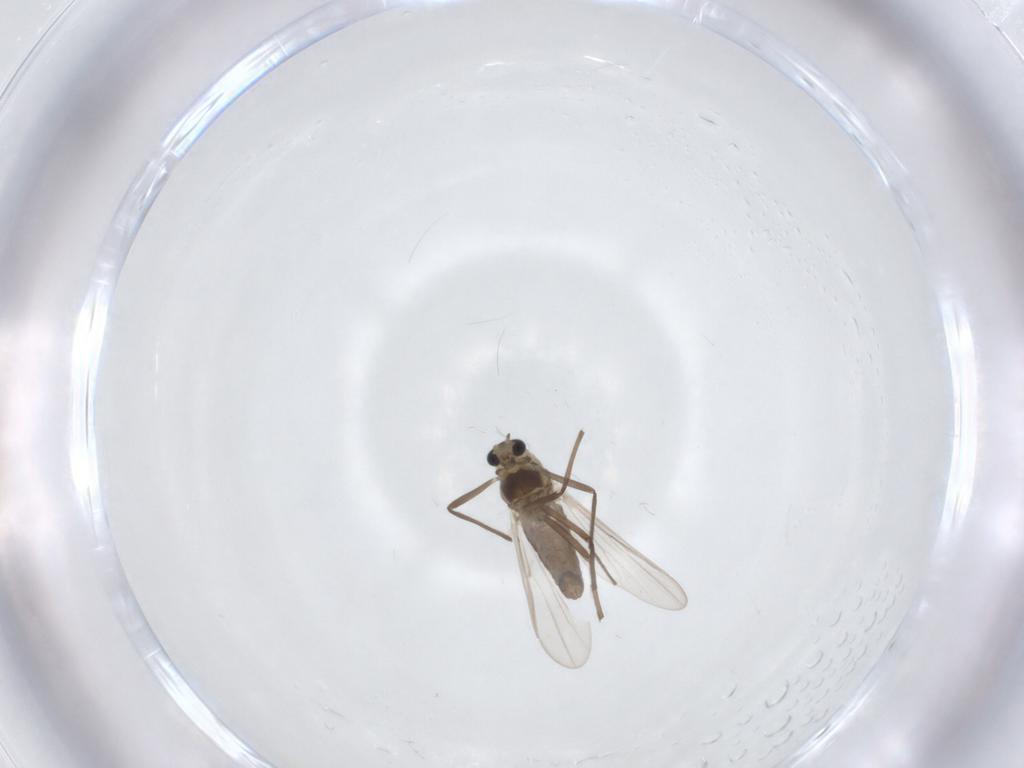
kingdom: Animalia
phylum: Arthropoda
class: Insecta
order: Diptera
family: Chironomidae
